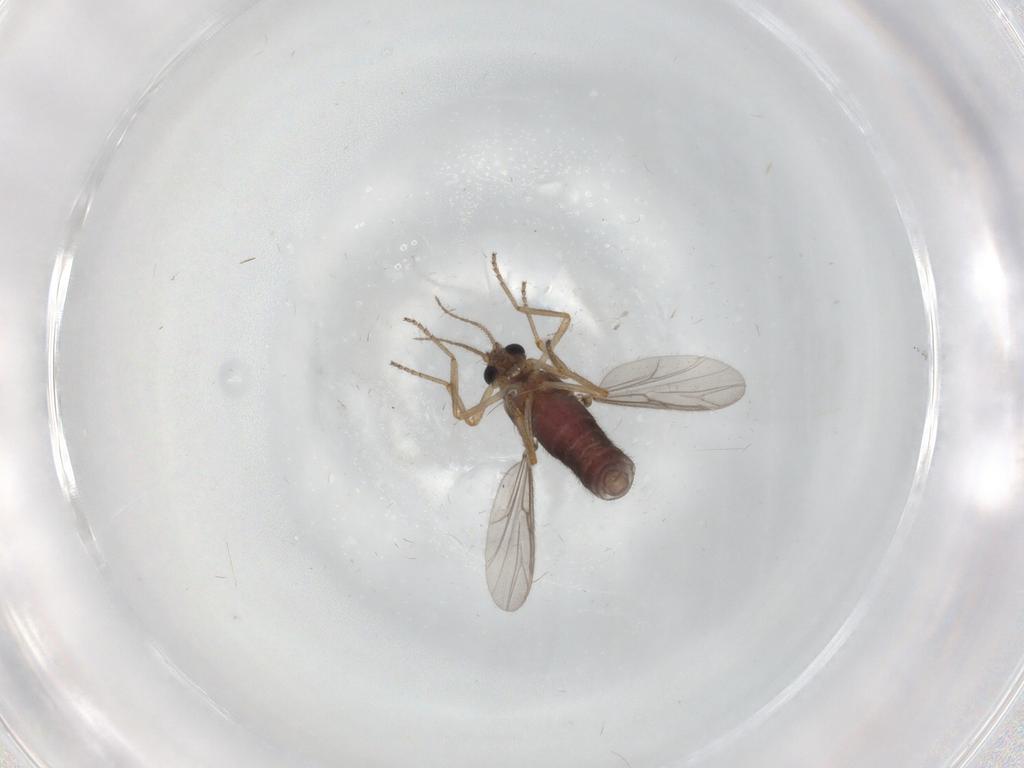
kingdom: Animalia
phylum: Arthropoda
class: Insecta
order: Diptera
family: Ceratopogonidae
